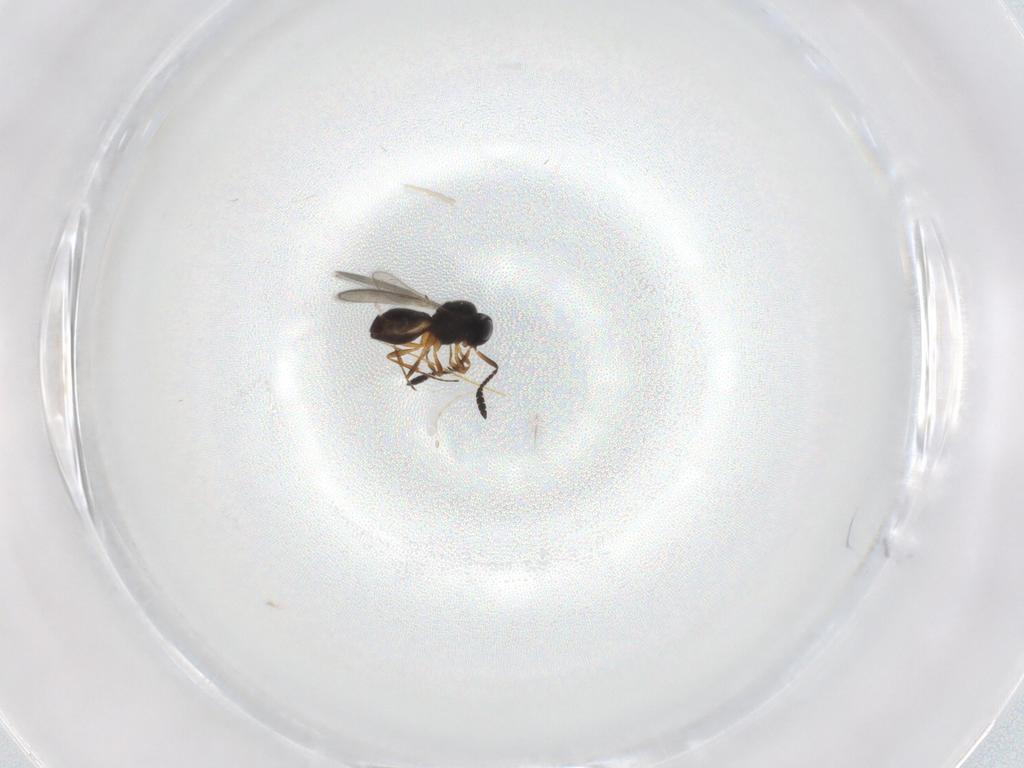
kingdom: Animalia
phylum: Arthropoda
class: Insecta
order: Hymenoptera
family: Scelionidae
